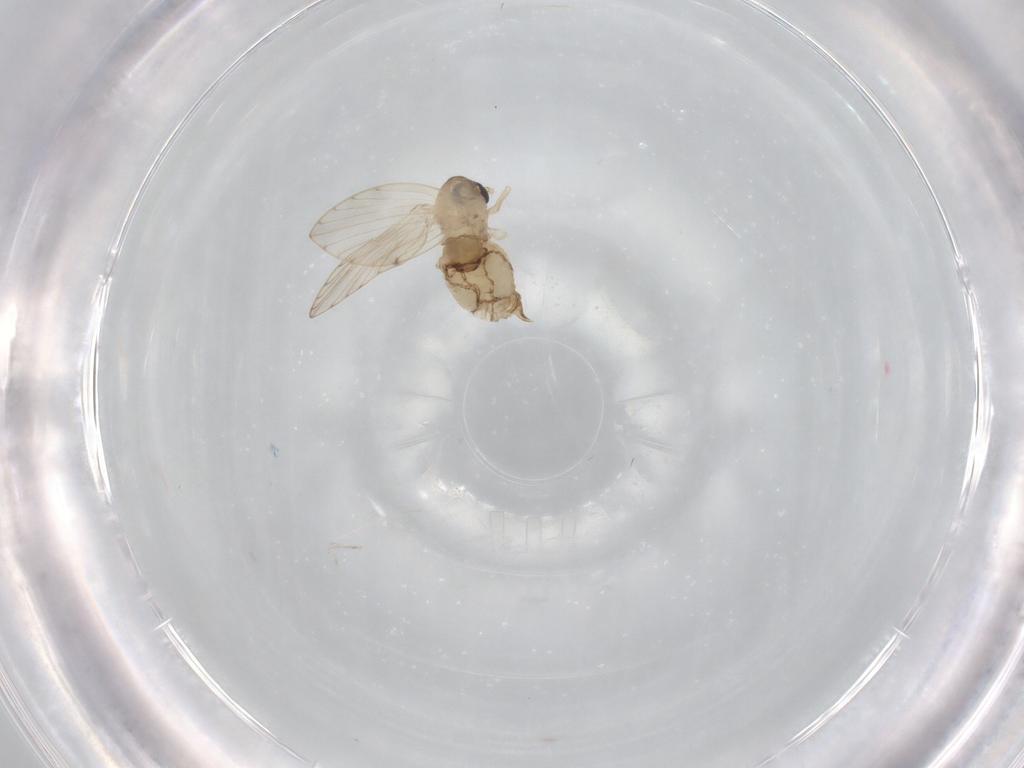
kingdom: Animalia
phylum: Arthropoda
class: Insecta
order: Diptera
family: Psychodidae
